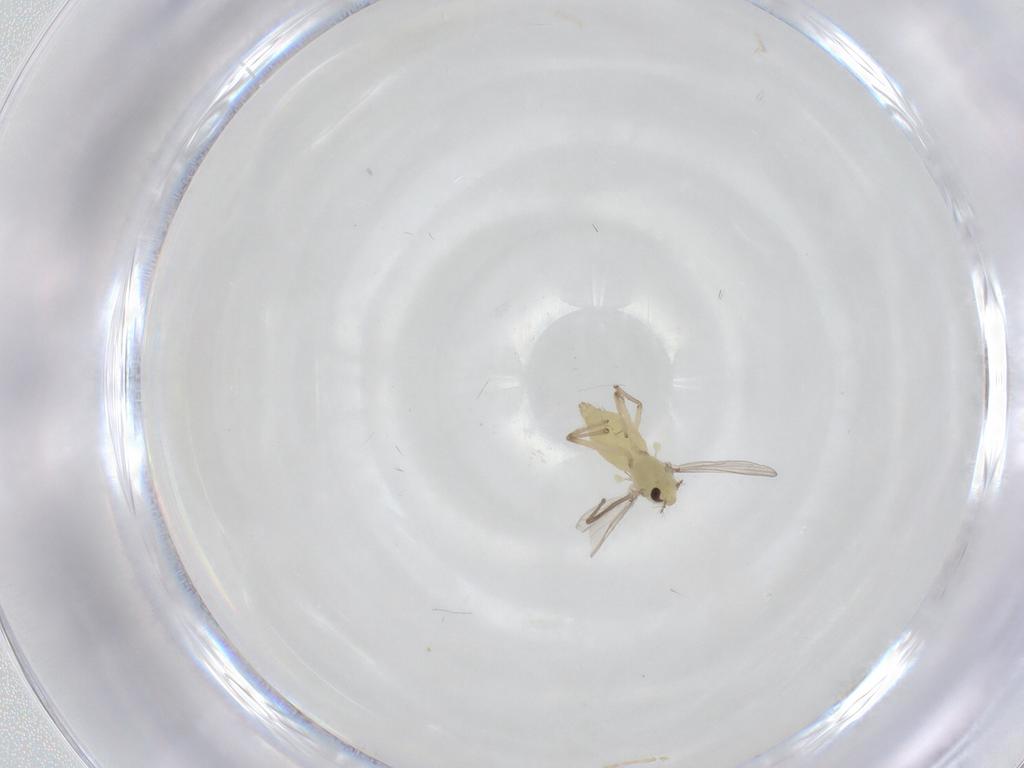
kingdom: Animalia
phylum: Arthropoda
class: Insecta
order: Diptera
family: Chironomidae
